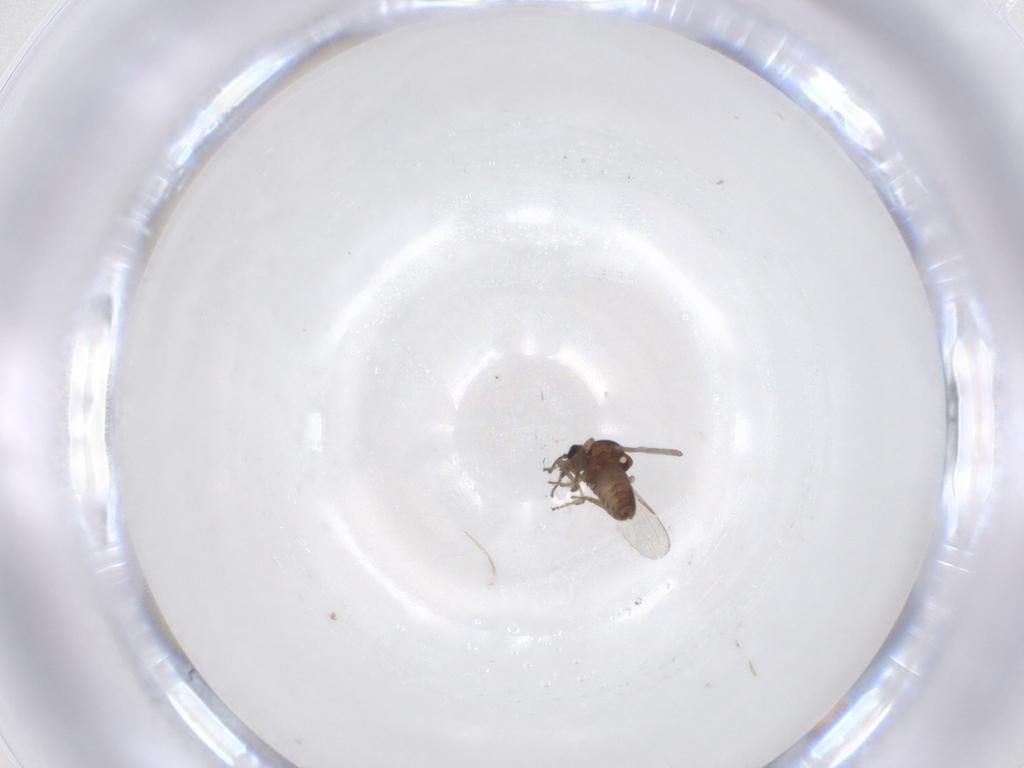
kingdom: Animalia
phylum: Arthropoda
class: Insecta
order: Diptera
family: Ceratopogonidae
